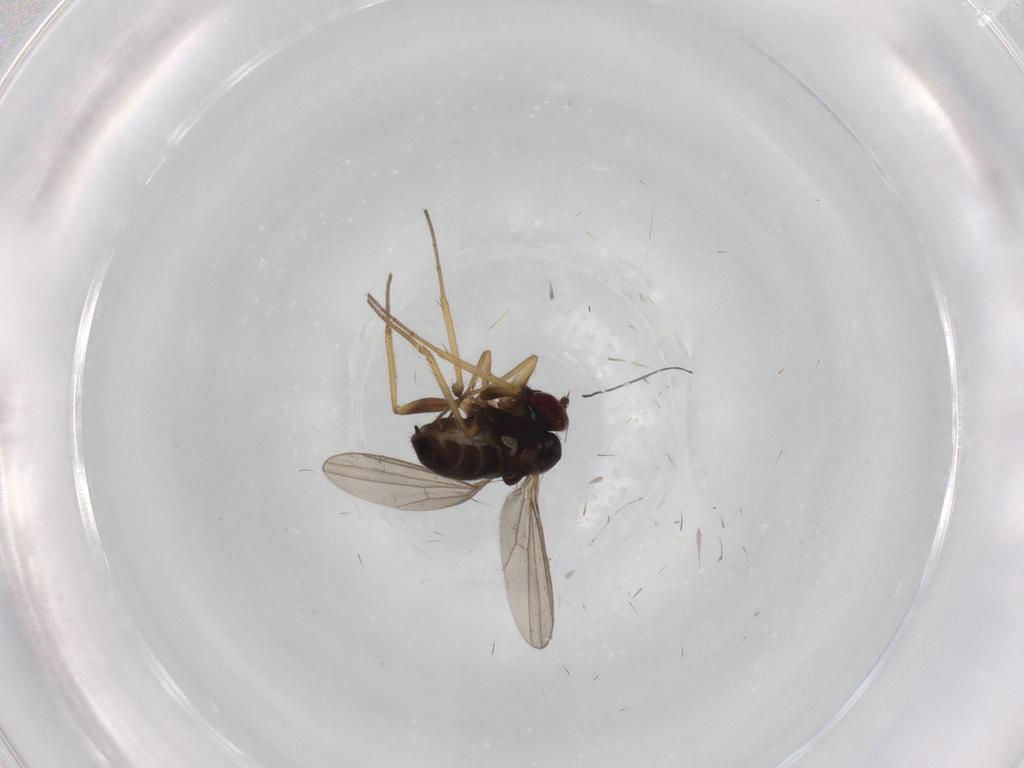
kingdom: Animalia
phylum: Arthropoda
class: Insecta
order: Diptera
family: Dolichopodidae
